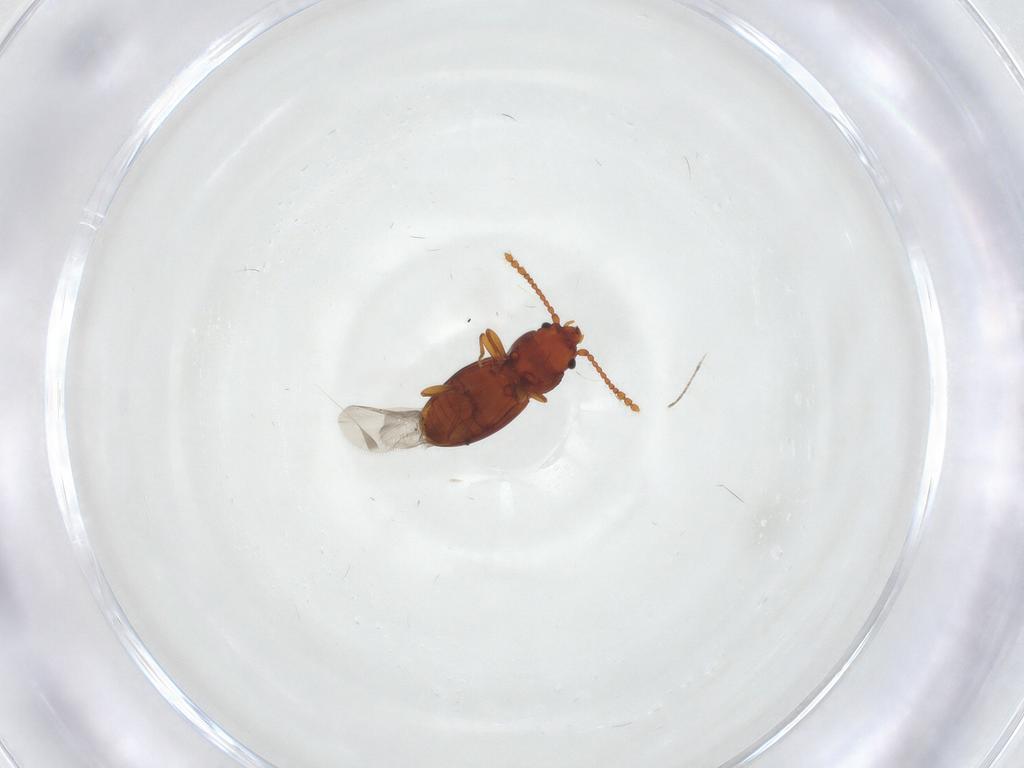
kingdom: Animalia
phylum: Arthropoda
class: Insecta
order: Coleoptera
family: Laemophloeidae
